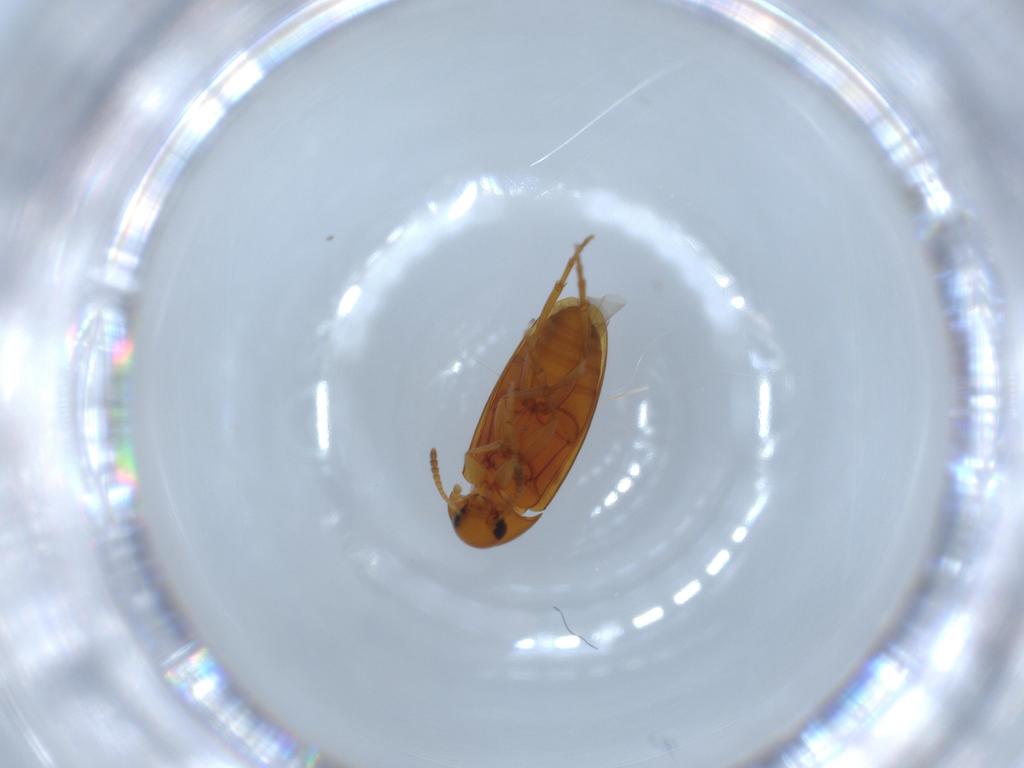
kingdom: Animalia
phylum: Arthropoda
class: Insecta
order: Coleoptera
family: Scraptiidae
